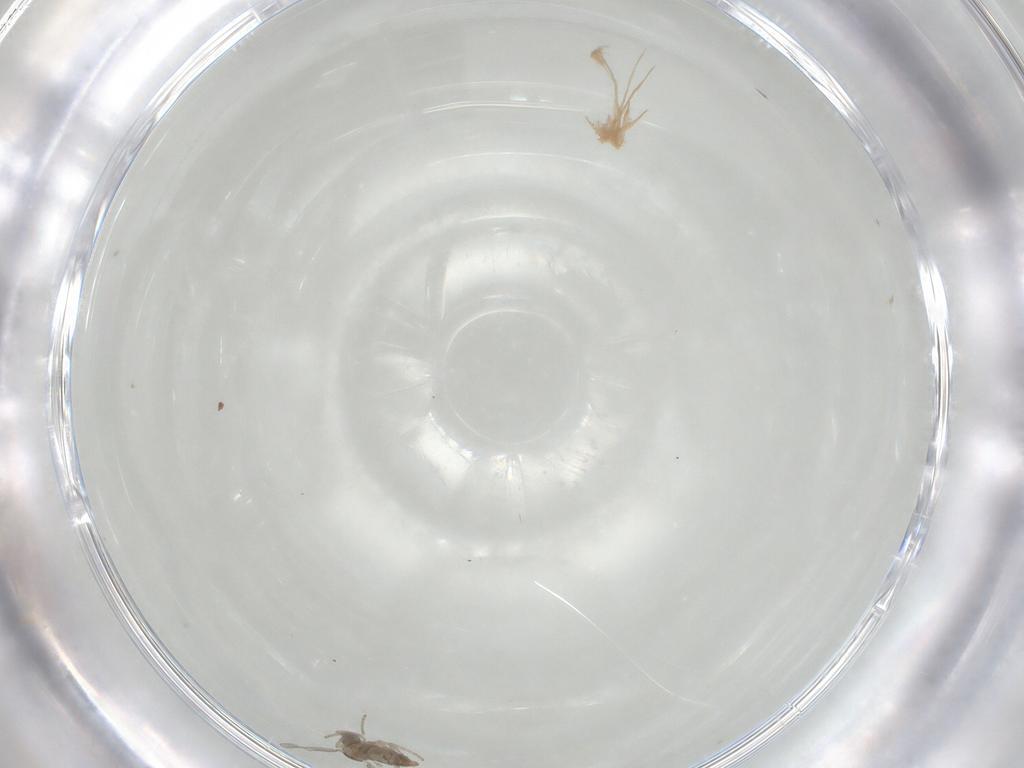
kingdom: Animalia
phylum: Arthropoda
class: Insecta
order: Diptera
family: Cecidomyiidae
